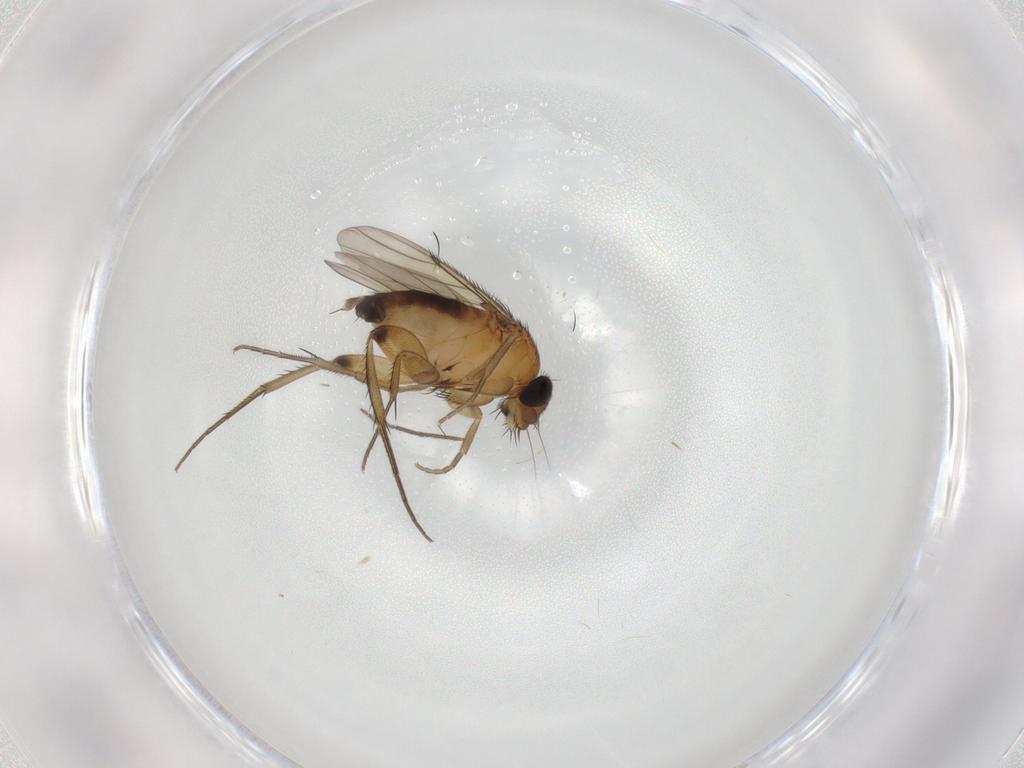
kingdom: Animalia
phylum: Arthropoda
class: Insecta
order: Diptera
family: Phoridae
